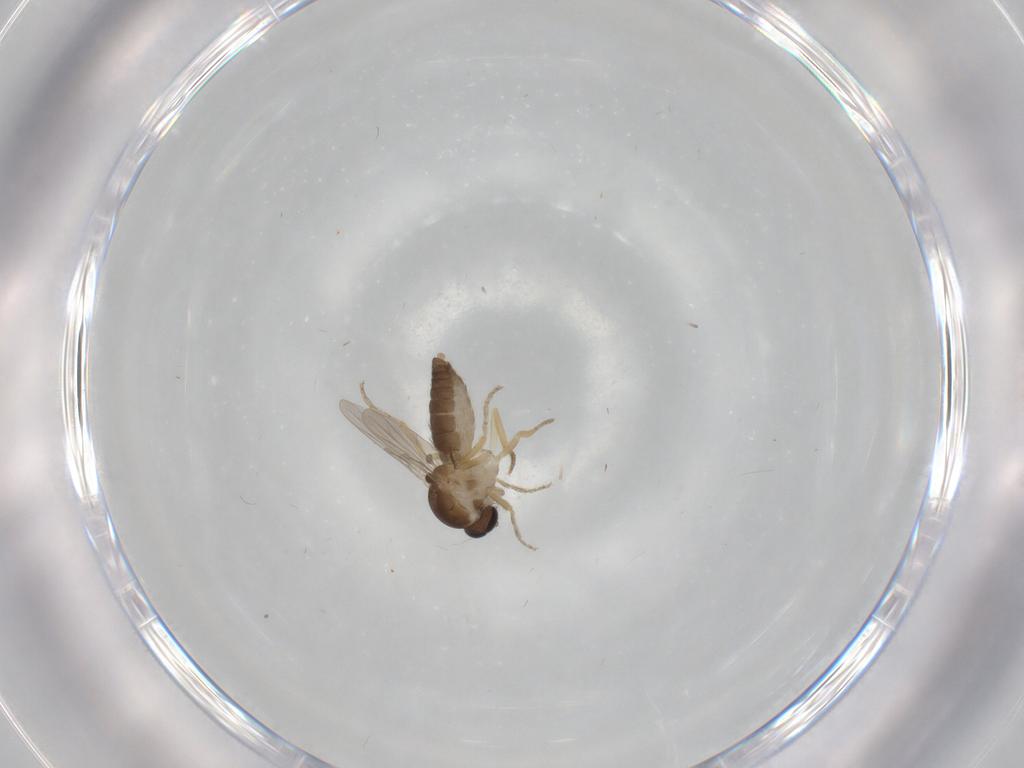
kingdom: Animalia
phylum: Arthropoda
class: Insecta
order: Diptera
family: Ceratopogonidae
